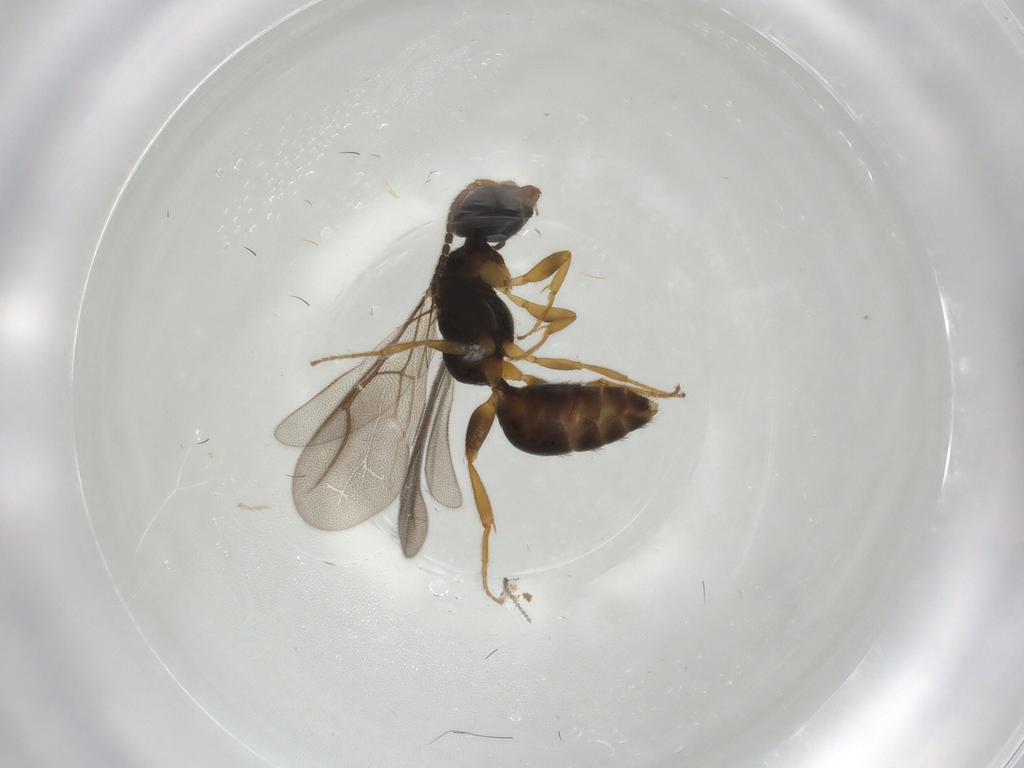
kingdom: Animalia
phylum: Arthropoda
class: Insecta
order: Diptera
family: Cecidomyiidae
